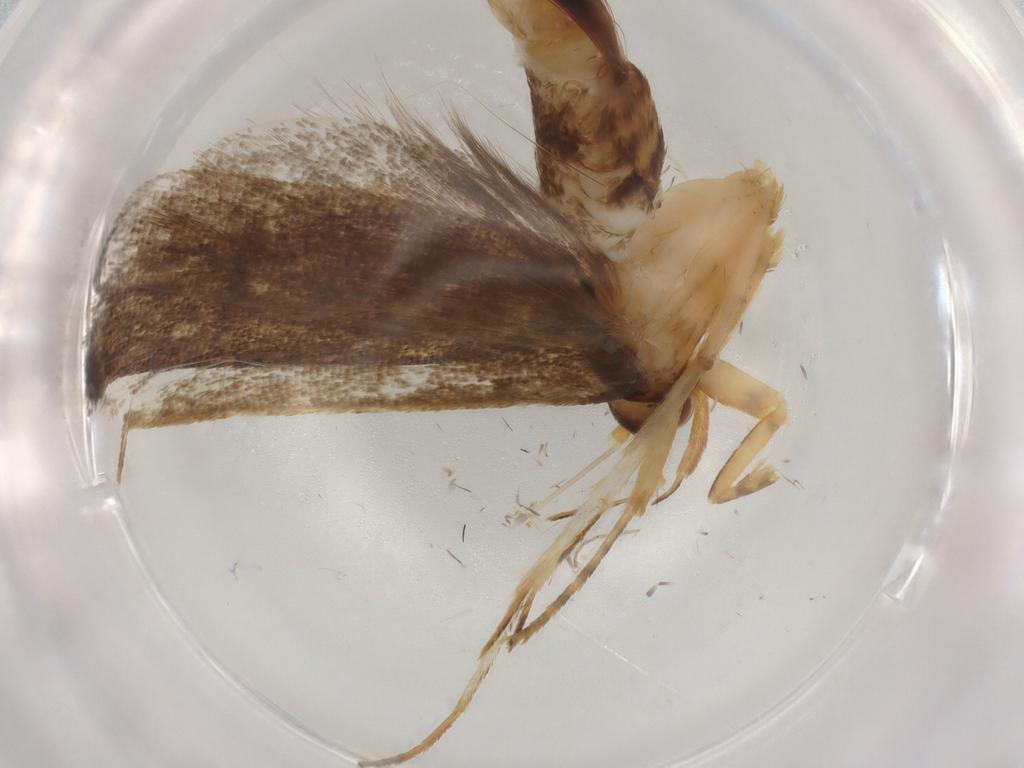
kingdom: Animalia
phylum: Arthropoda
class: Insecta
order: Lepidoptera
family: Lecithoceridae
